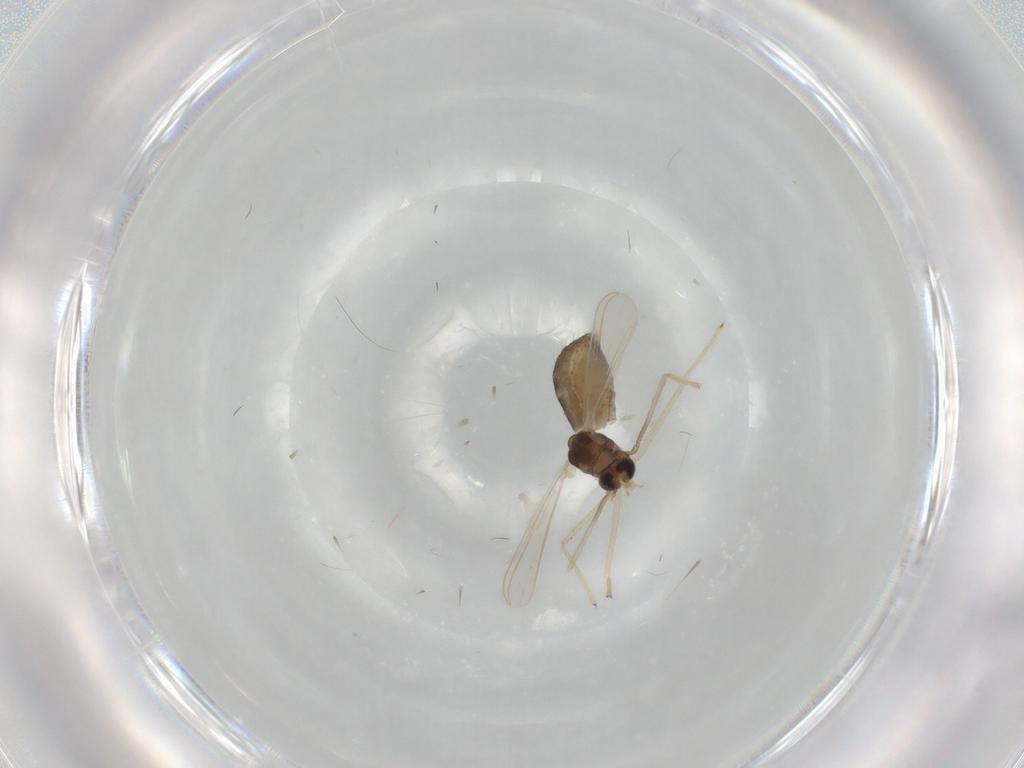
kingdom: Animalia
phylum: Arthropoda
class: Insecta
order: Diptera
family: Chironomidae
